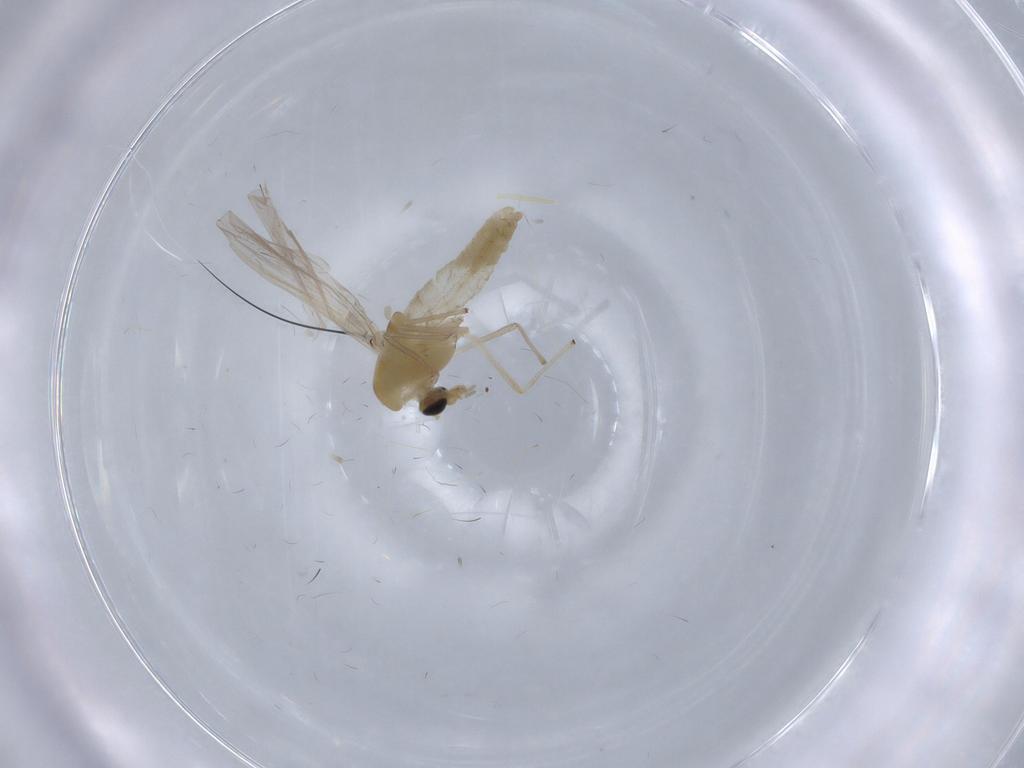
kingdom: Animalia
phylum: Arthropoda
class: Insecta
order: Diptera
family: Chironomidae
